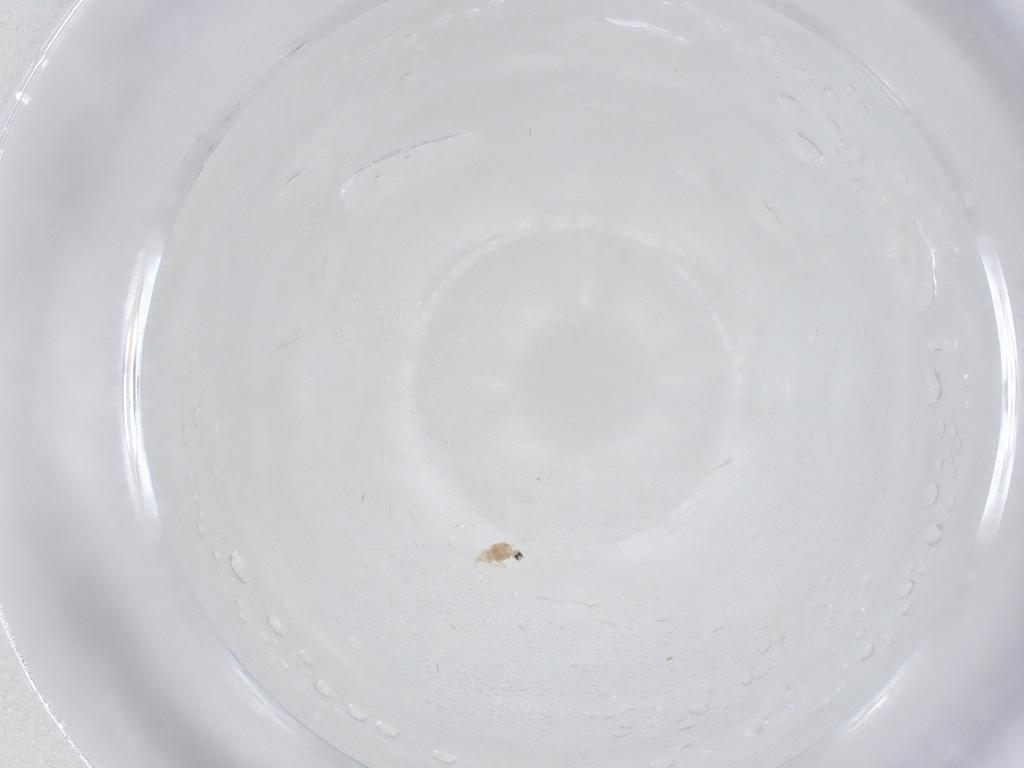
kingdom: Animalia
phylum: Arthropoda
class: Insecta
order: Hemiptera
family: Diaspididae
